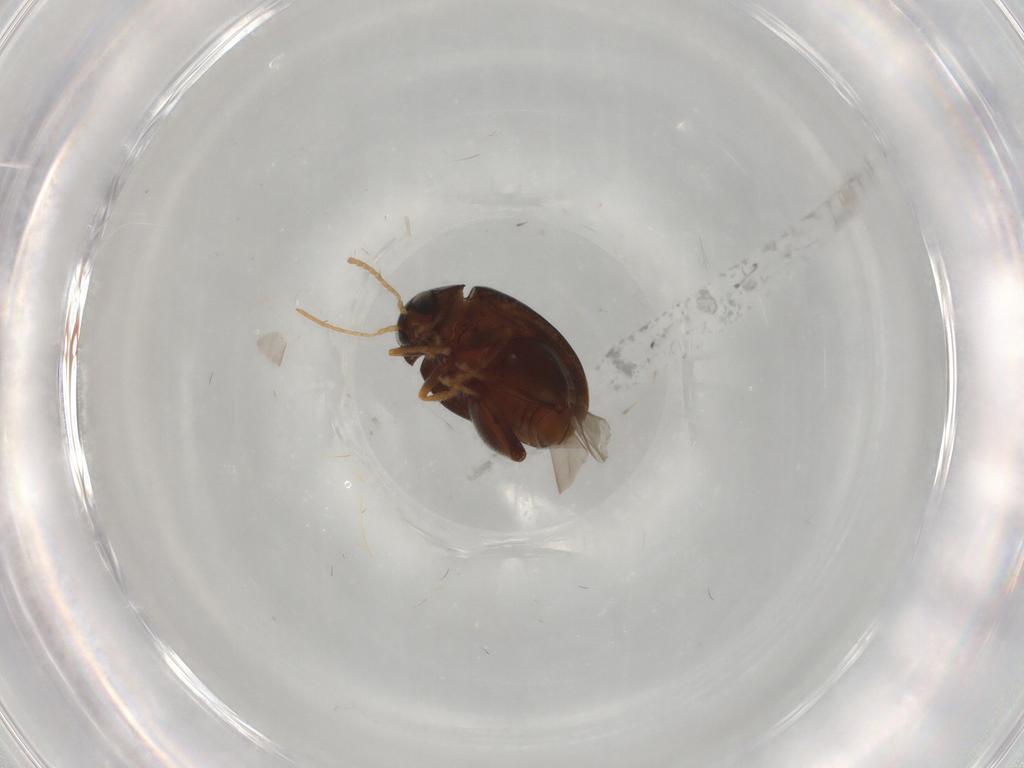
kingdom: Animalia
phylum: Arthropoda
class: Insecta
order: Coleoptera
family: Chrysomelidae
